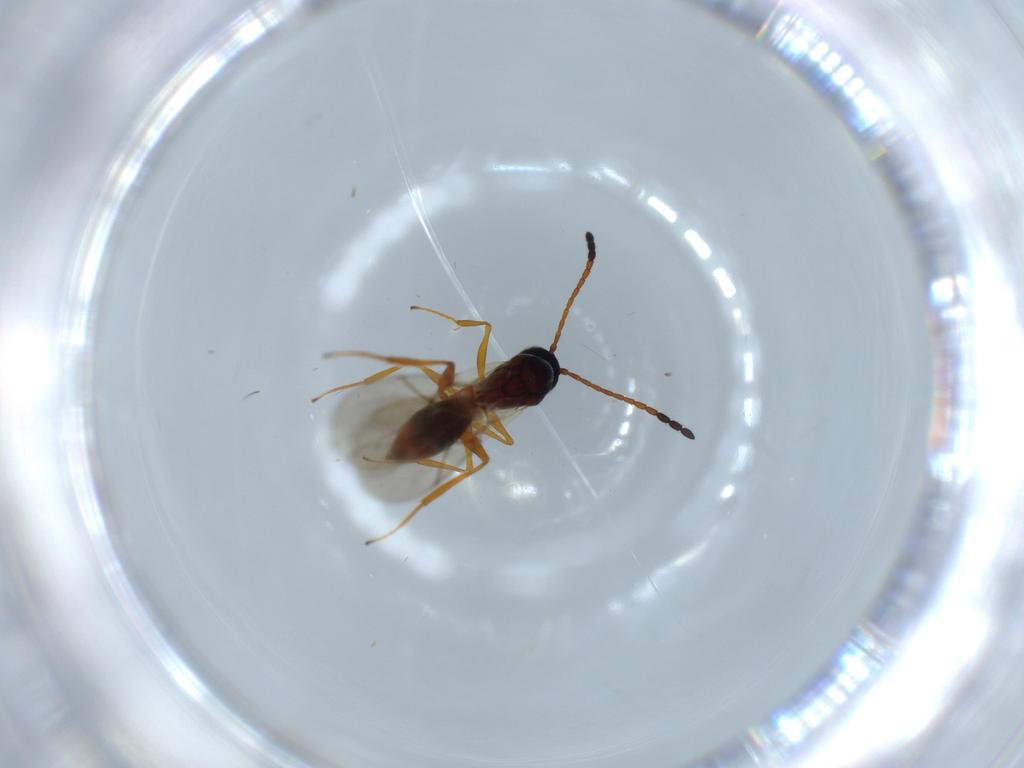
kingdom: Animalia
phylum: Arthropoda
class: Insecta
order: Hymenoptera
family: Figitidae
